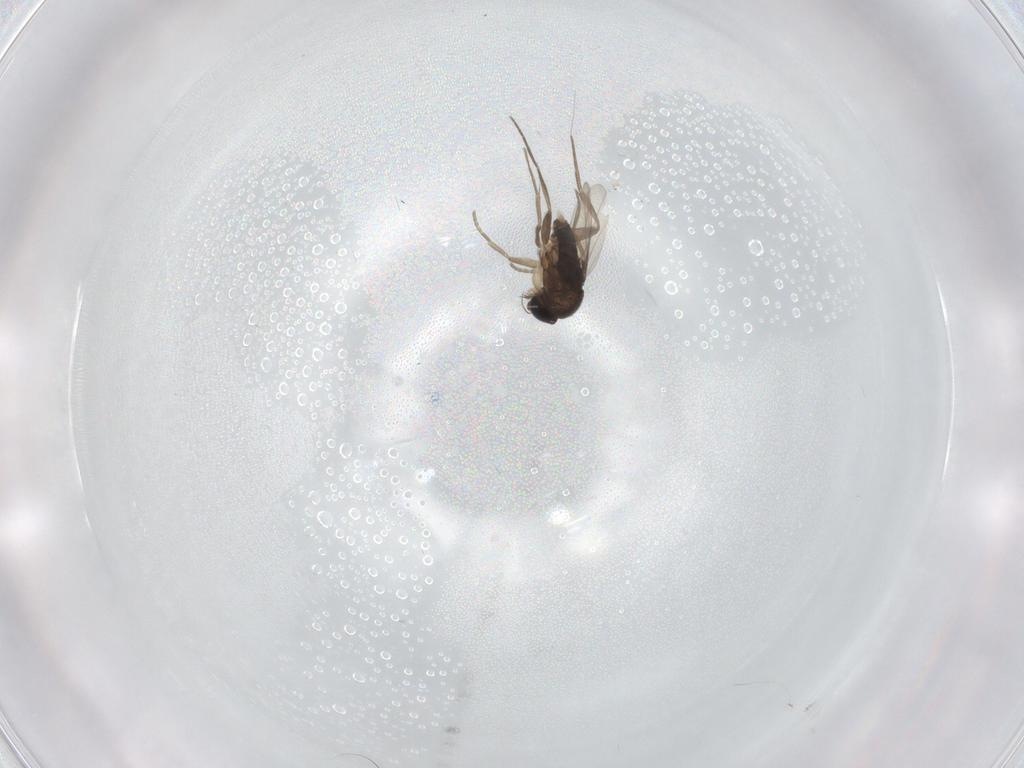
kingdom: Animalia
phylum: Arthropoda
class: Insecta
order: Diptera
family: Phoridae
